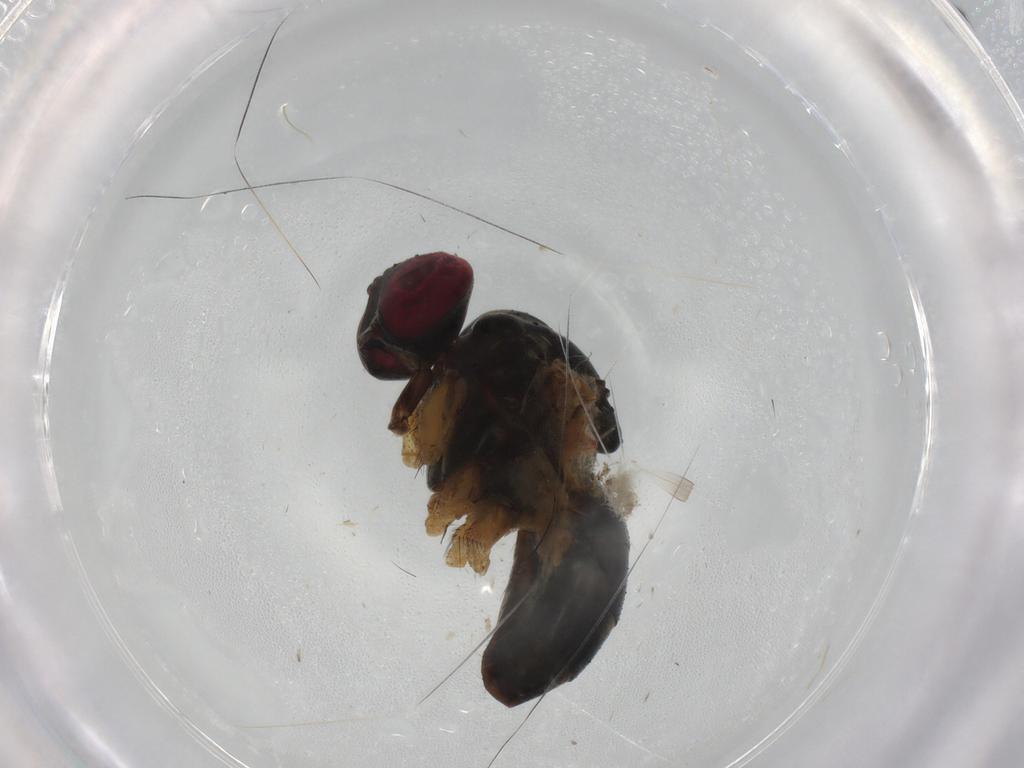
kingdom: Animalia
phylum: Arthropoda
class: Insecta
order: Diptera
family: Muscidae
